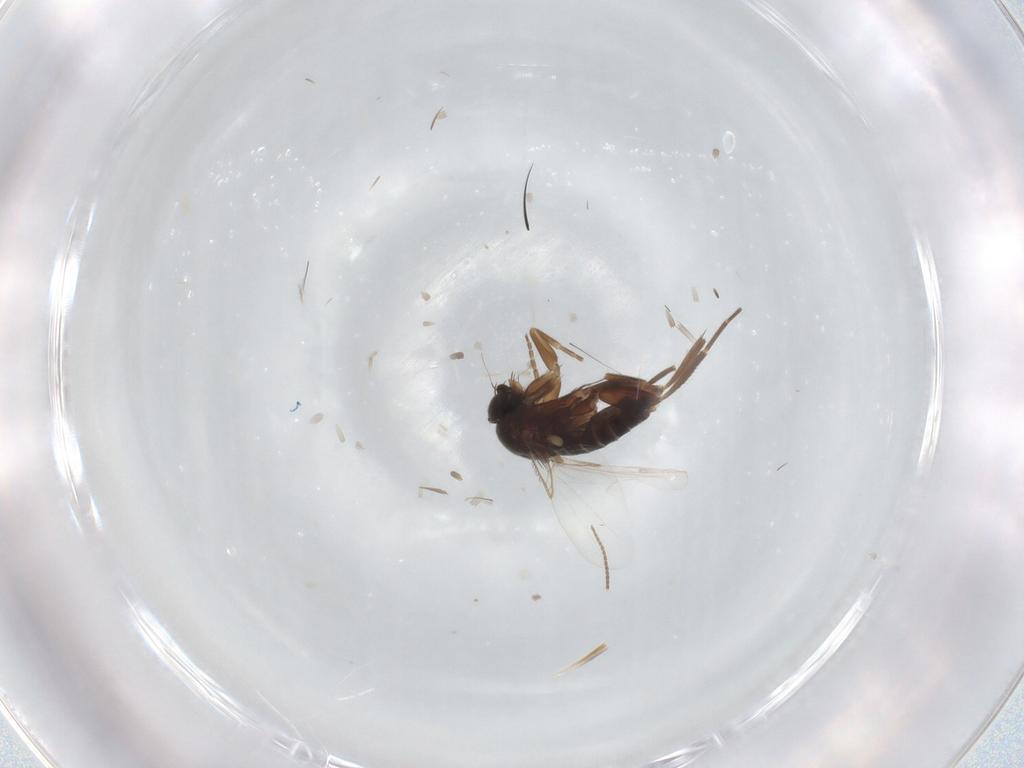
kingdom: Animalia
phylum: Arthropoda
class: Insecta
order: Diptera
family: Phoridae
